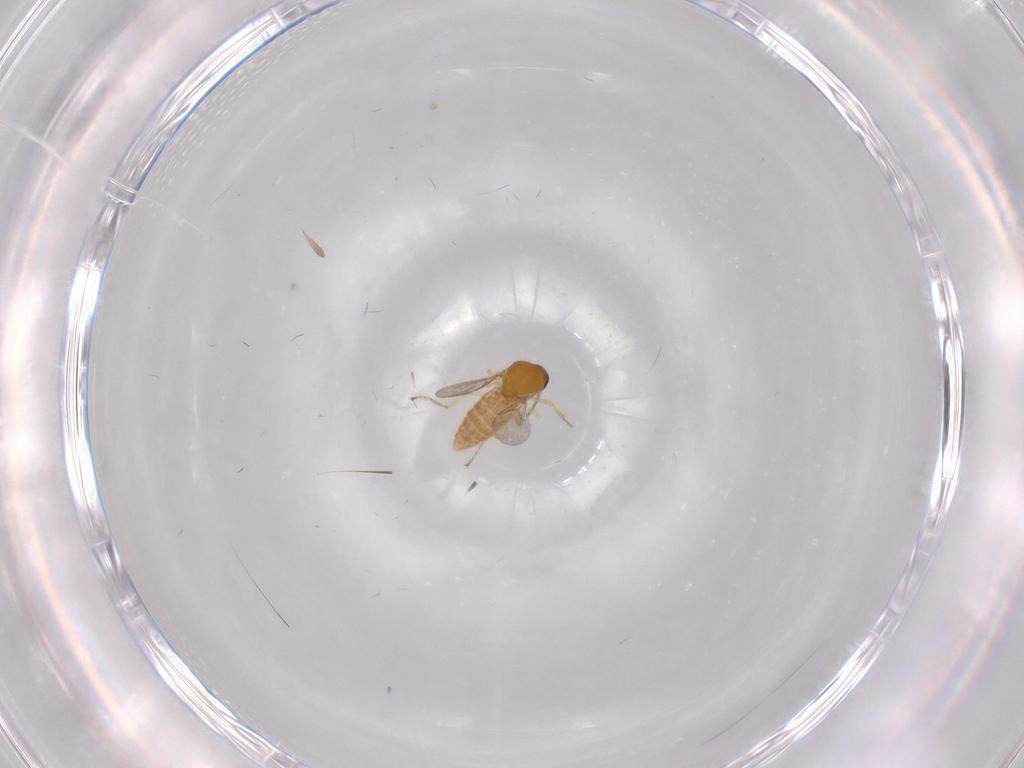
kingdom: Animalia
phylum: Arthropoda
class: Insecta
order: Diptera
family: Ceratopogonidae
